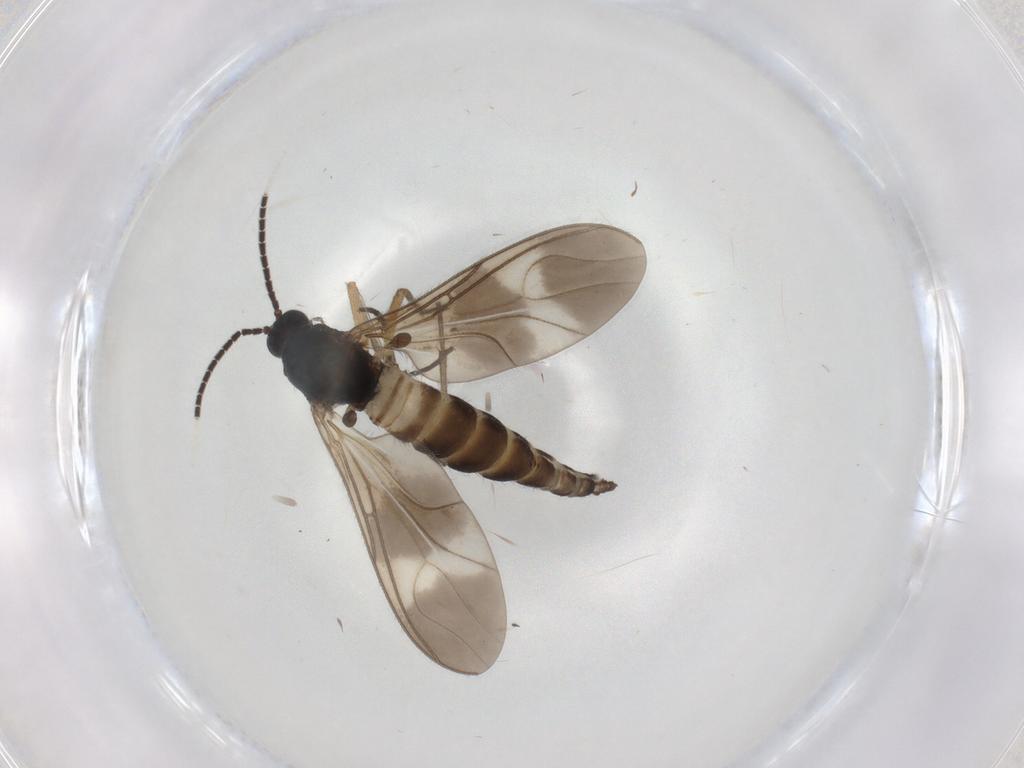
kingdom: Animalia
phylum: Arthropoda
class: Insecta
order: Diptera
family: Sciaridae
